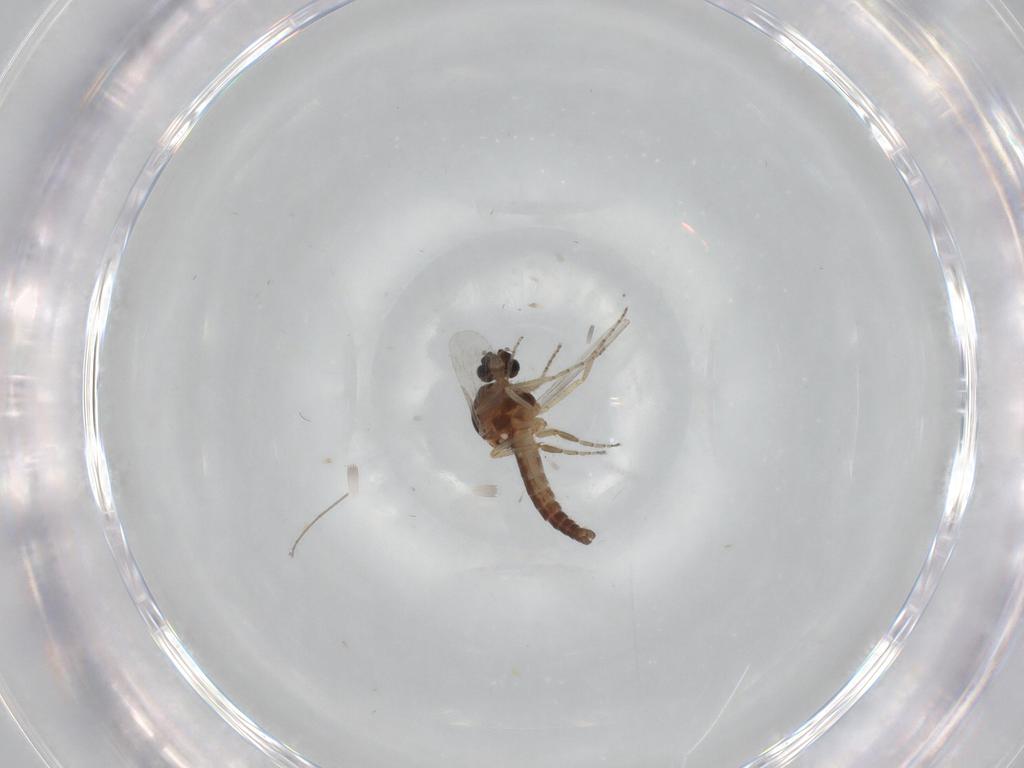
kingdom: Animalia
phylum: Arthropoda
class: Insecta
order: Diptera
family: Ceratopogonidae
